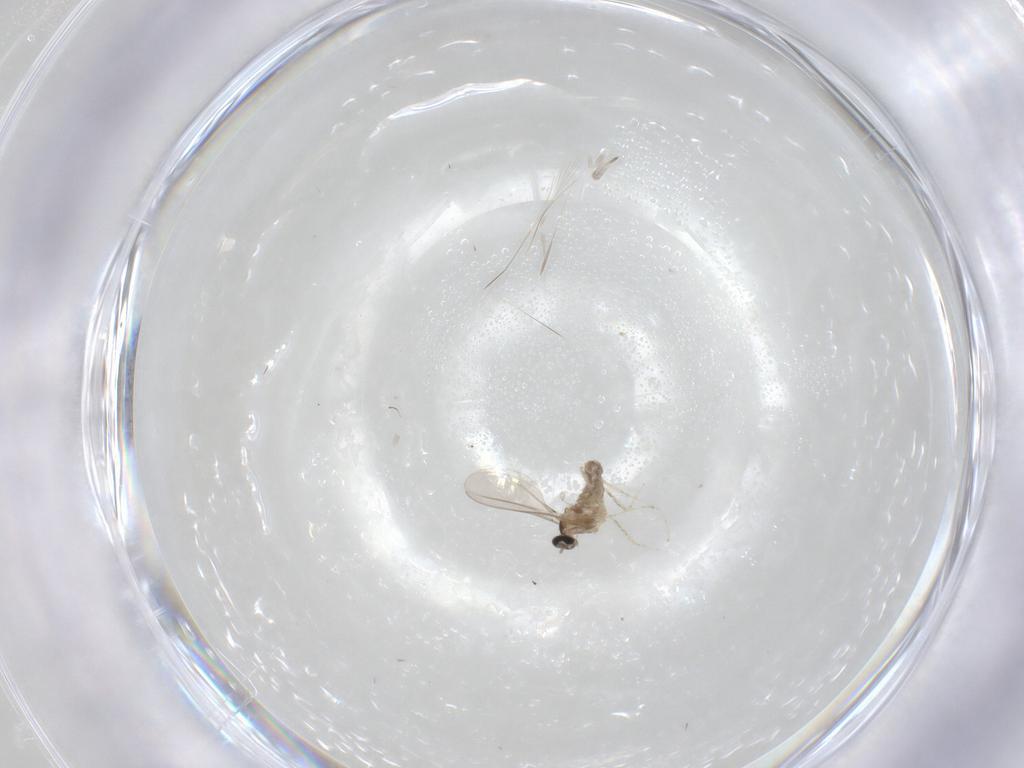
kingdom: Animalia
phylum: Arthropoda
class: Insecta
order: Diptera
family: Cecidomyiidae
